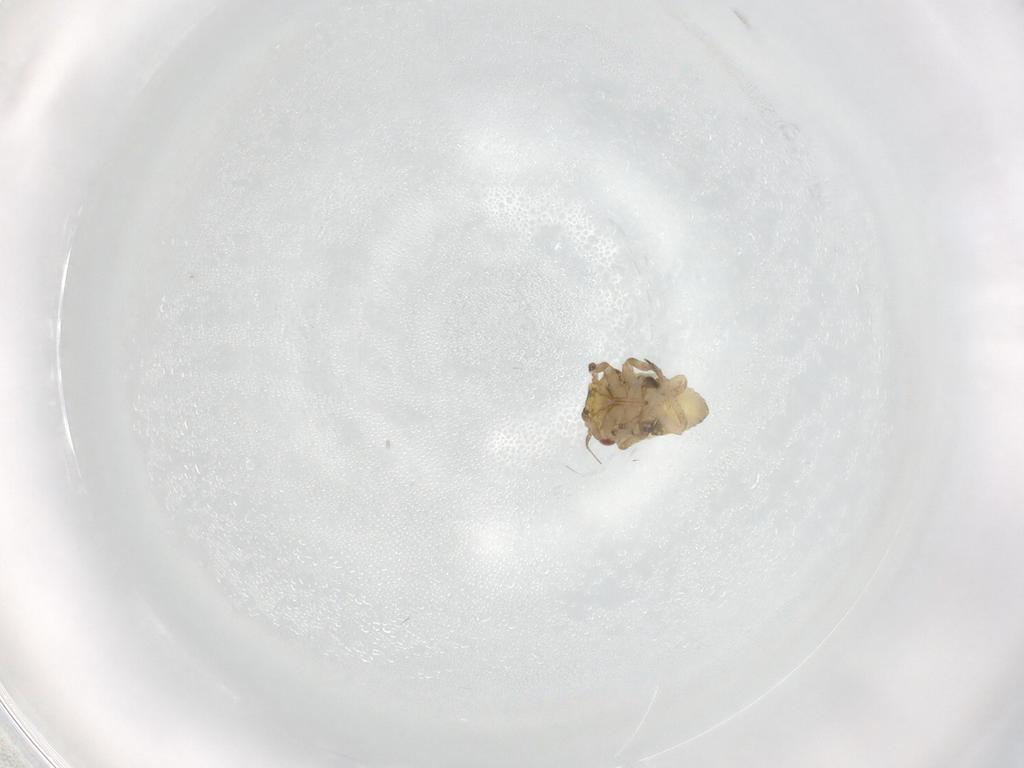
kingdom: Animalia
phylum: Arthropoda
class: Insecta
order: Hemiptera
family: Cicadellidae
